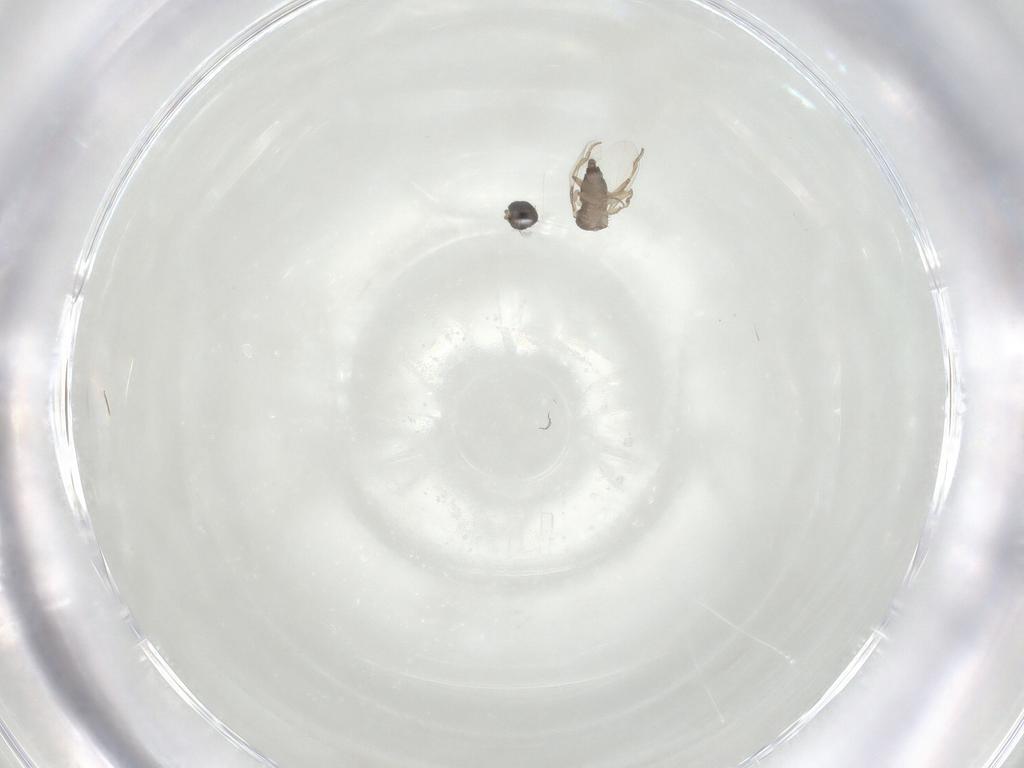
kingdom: Animalia
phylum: Arthropoda
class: Insecta
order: Diptera
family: Phoridae
